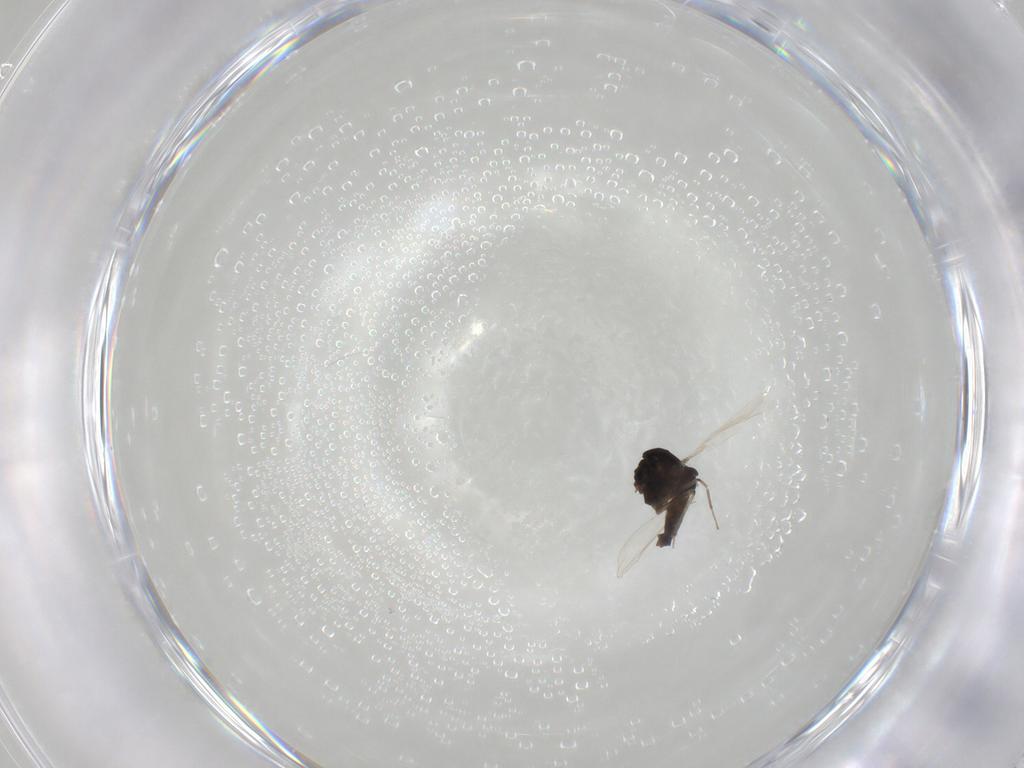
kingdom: Animalia
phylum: Arthropoda
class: Insecta
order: Diptera
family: Chironomidae
